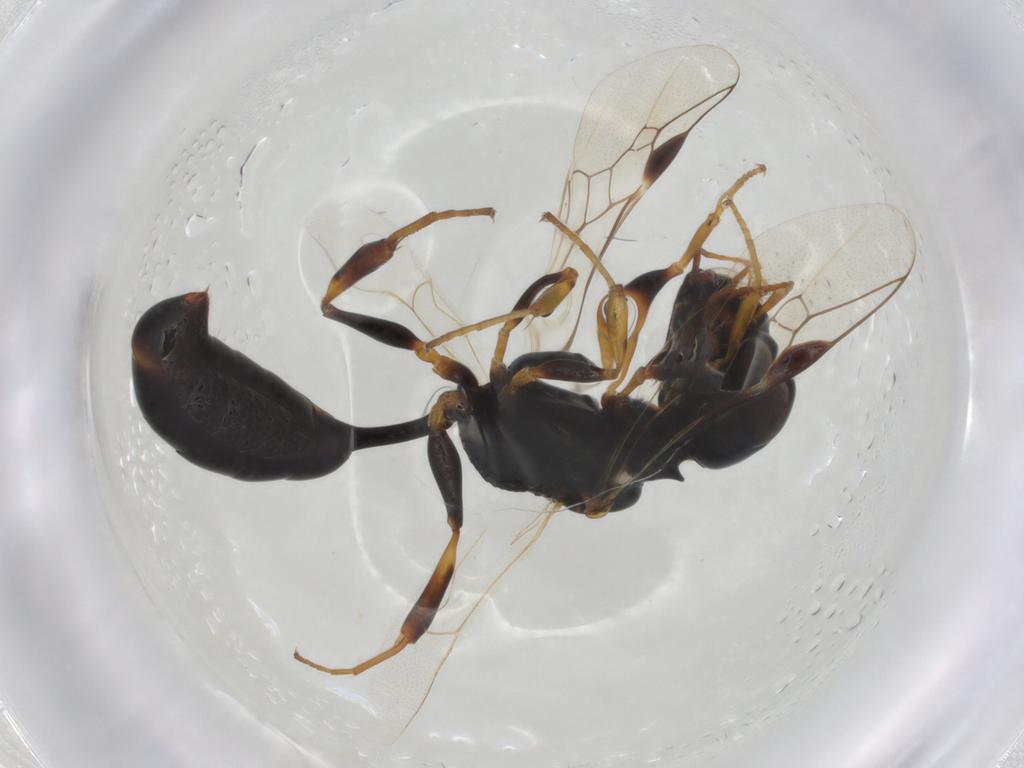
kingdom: Animalia
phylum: Arthropoda
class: Insecta
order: Hymenoptera
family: Crabronidae
